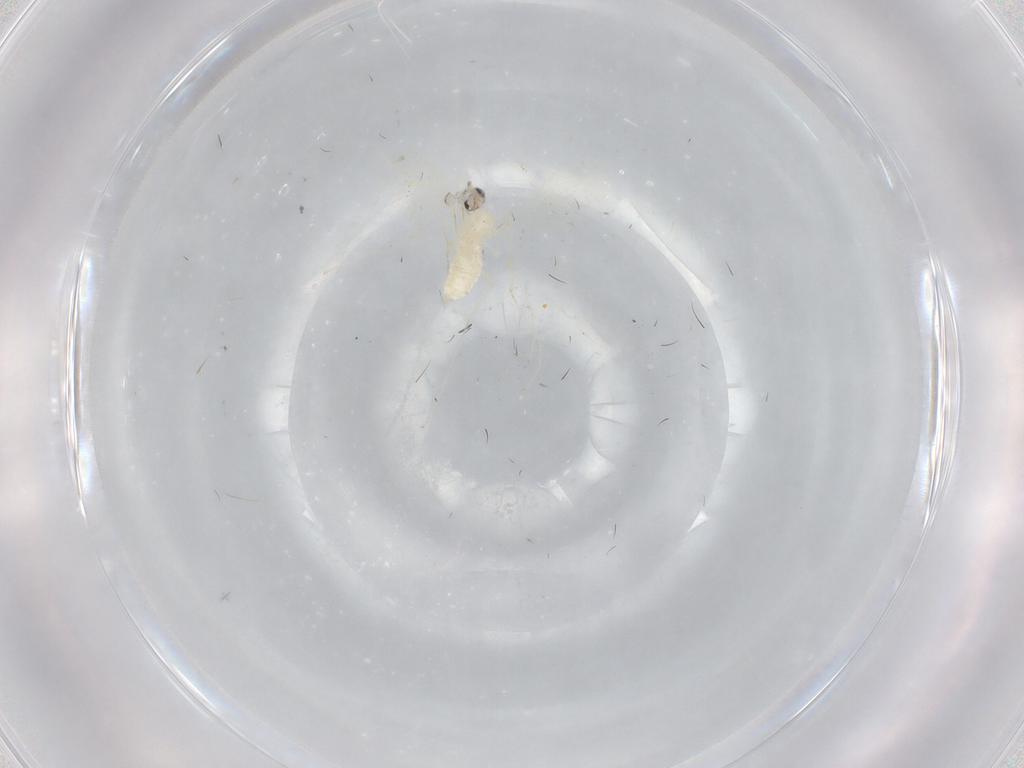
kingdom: Animalia
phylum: Arthropoda
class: Insecta
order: Diptera
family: Cecidomyiidae
